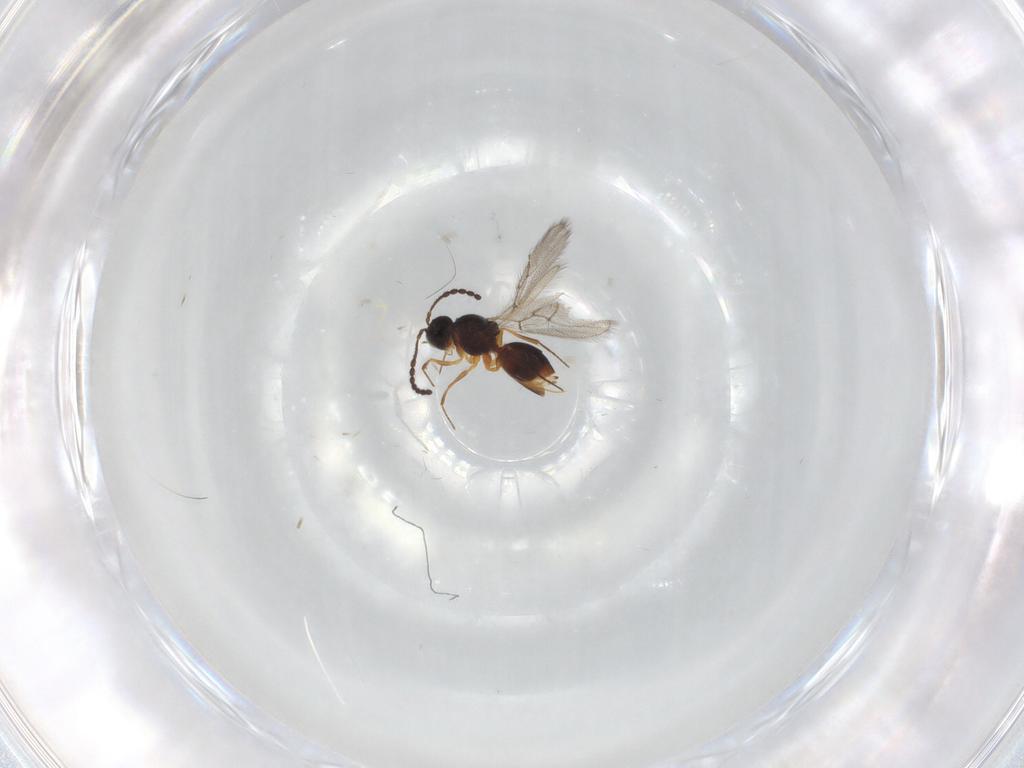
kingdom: Animalia
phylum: Arthropoda
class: Insecta
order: Hymenoptera
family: Figitidae
